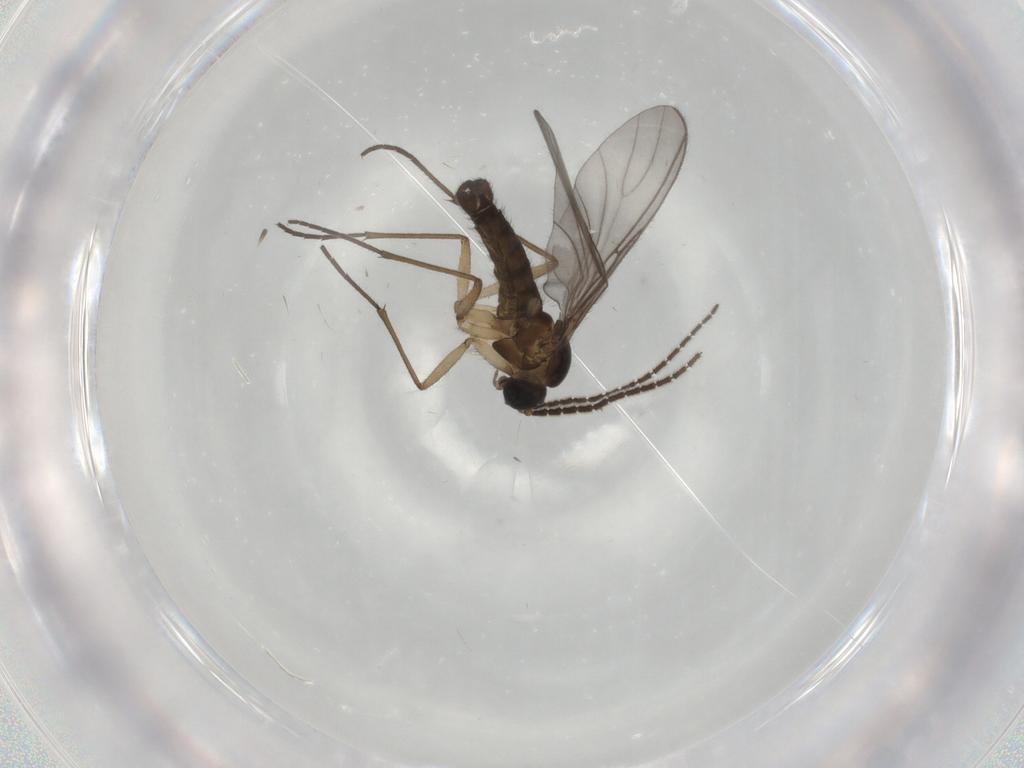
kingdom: Animalia
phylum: Arthropoda
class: Insecta
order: Diptera
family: Sciaridae
